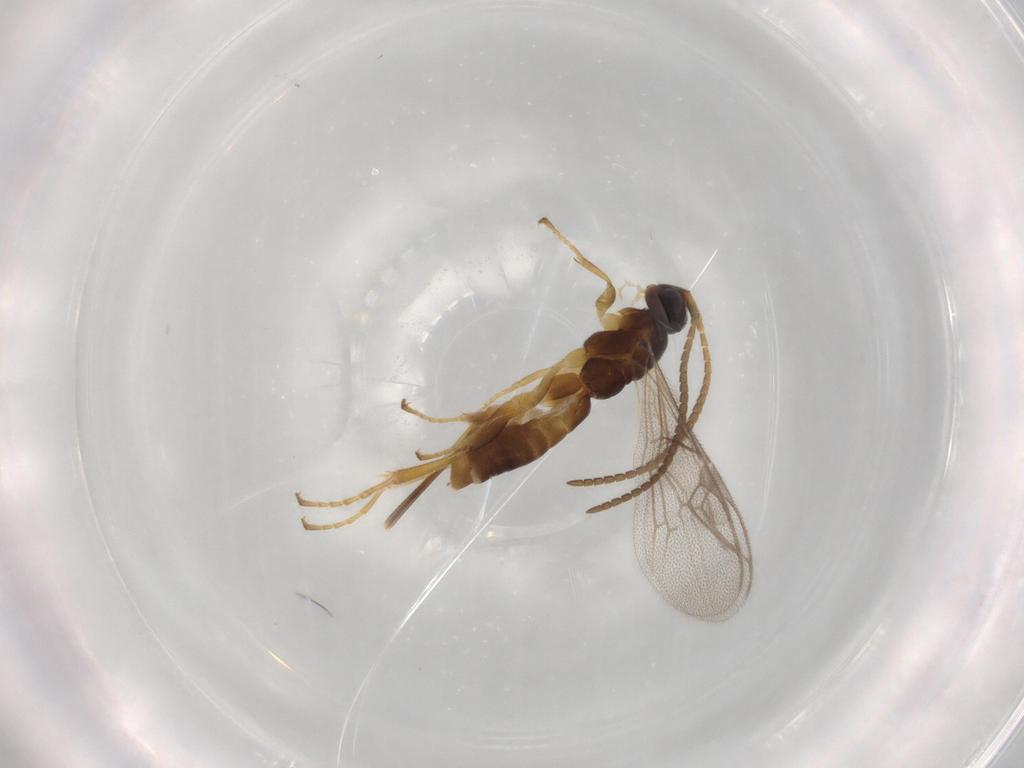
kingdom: Animalia
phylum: Arthropoda
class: Insecta
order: Hymenoptera
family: Ichneumonidae
